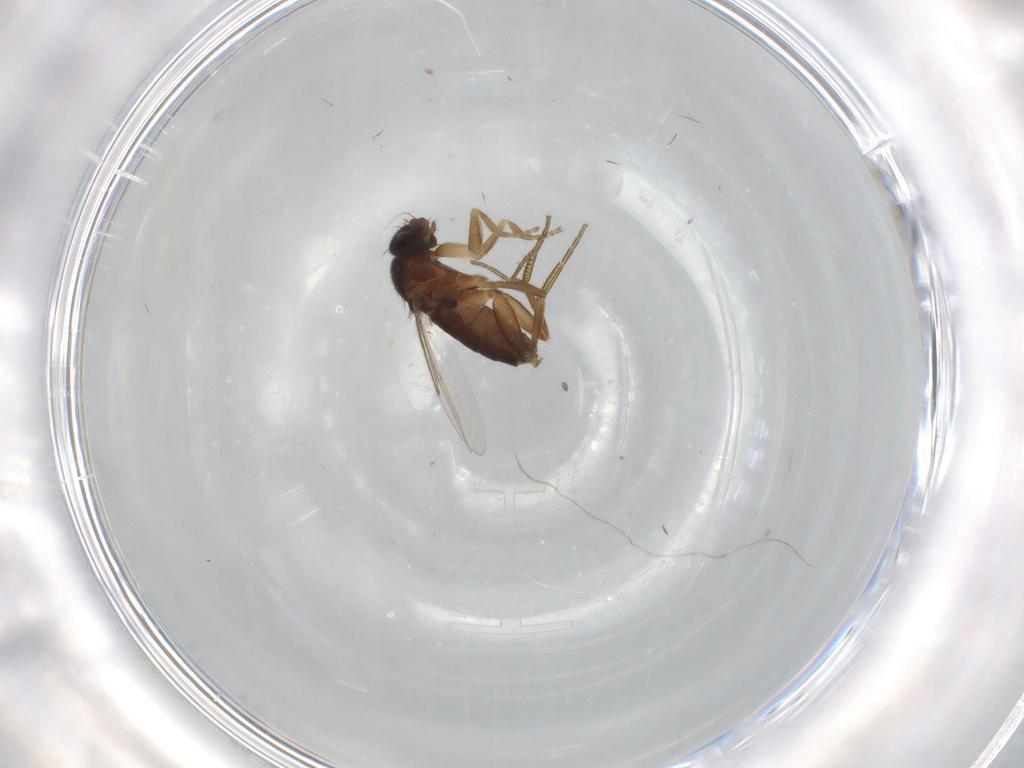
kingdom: Animalia
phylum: Arthropoda
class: Insecta
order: Diptera
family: Phoridae
